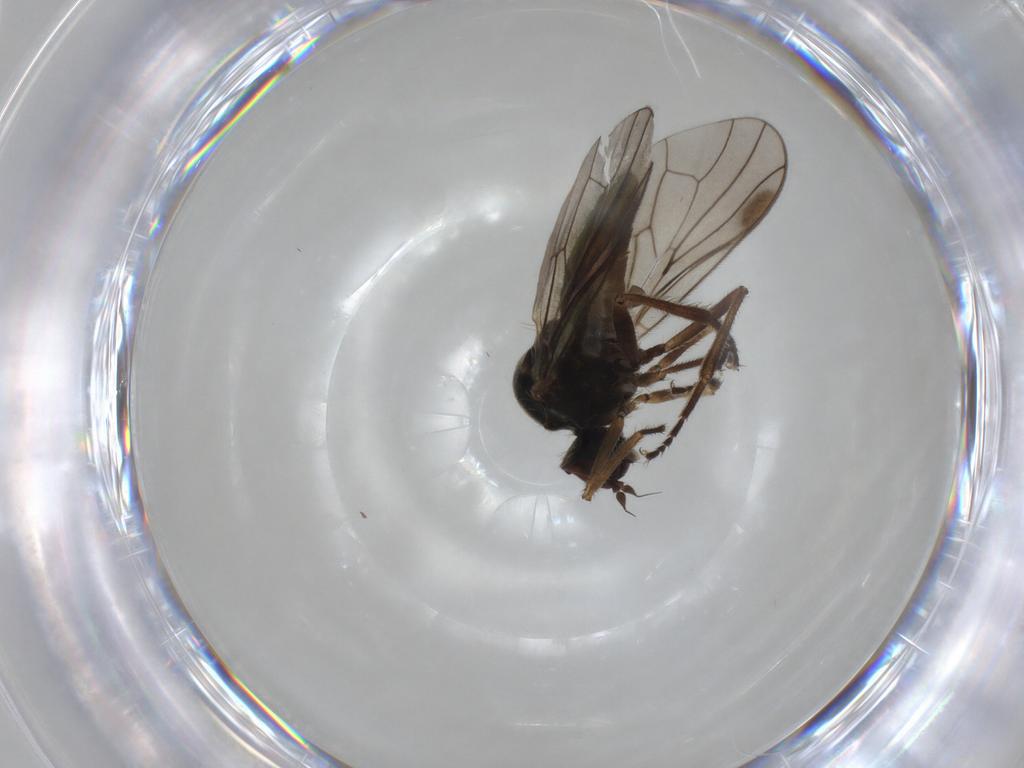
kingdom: Animalia
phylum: Arthropoda
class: Insecta
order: Diptera
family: Hybotidae
